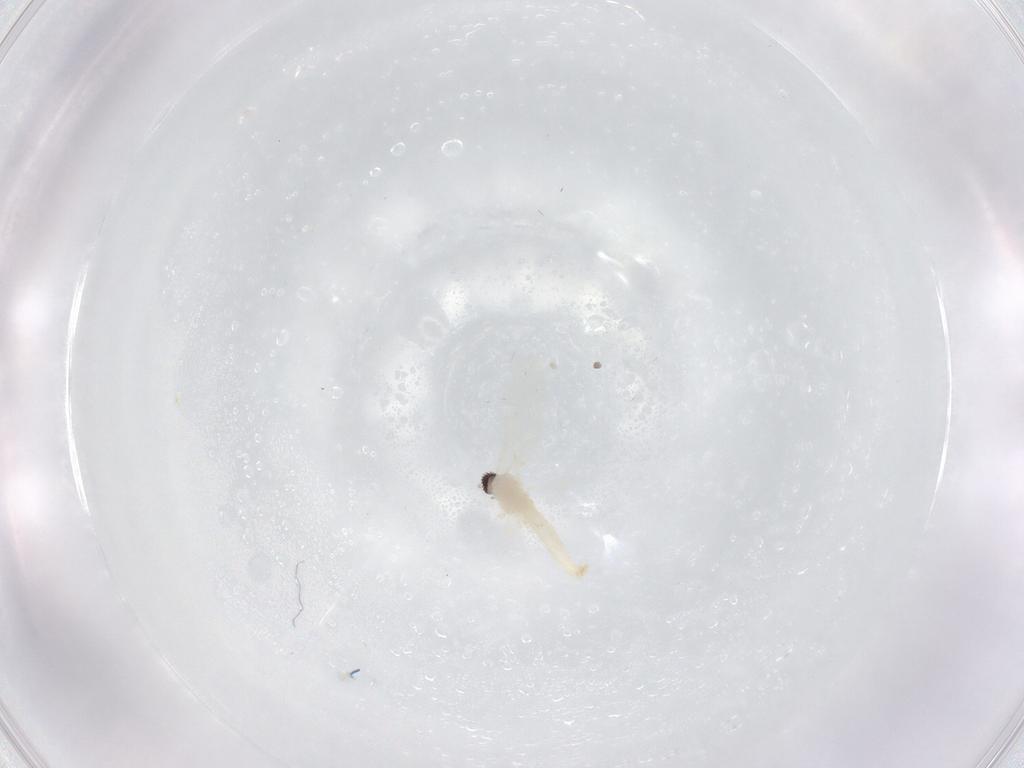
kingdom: Animalia
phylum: Arthropoda
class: Insecta
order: Diptera
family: Cecidomyiidae
